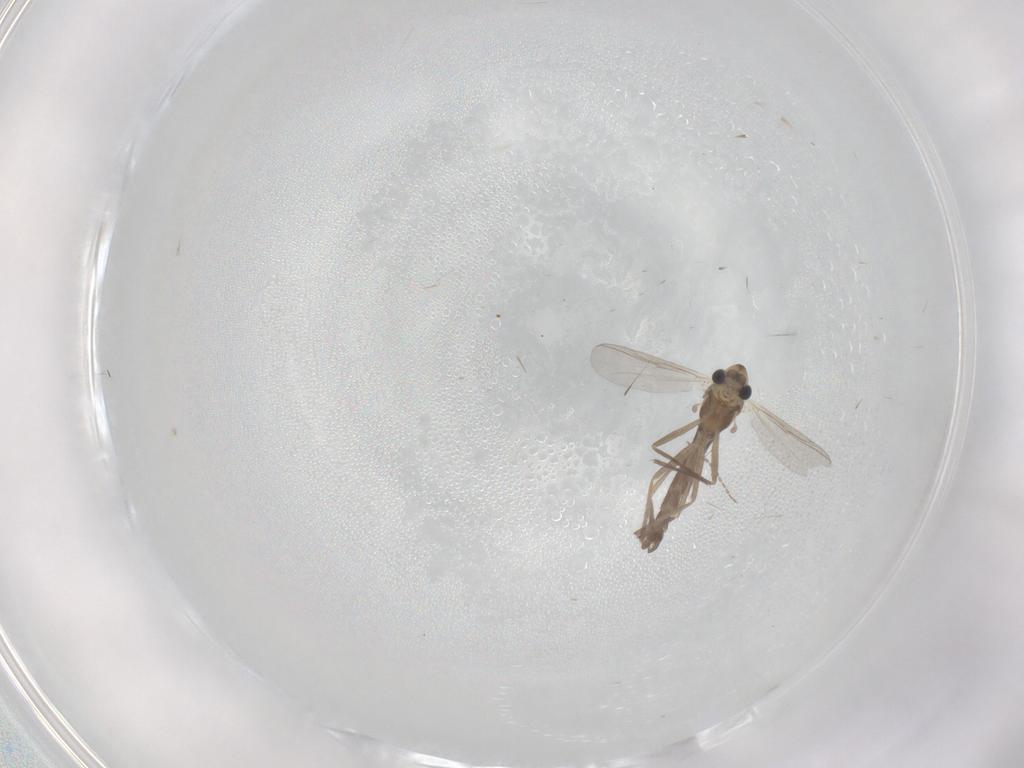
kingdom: Animalia
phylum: Arthropoda
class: Insecta
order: Diptera
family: Chironomidae
